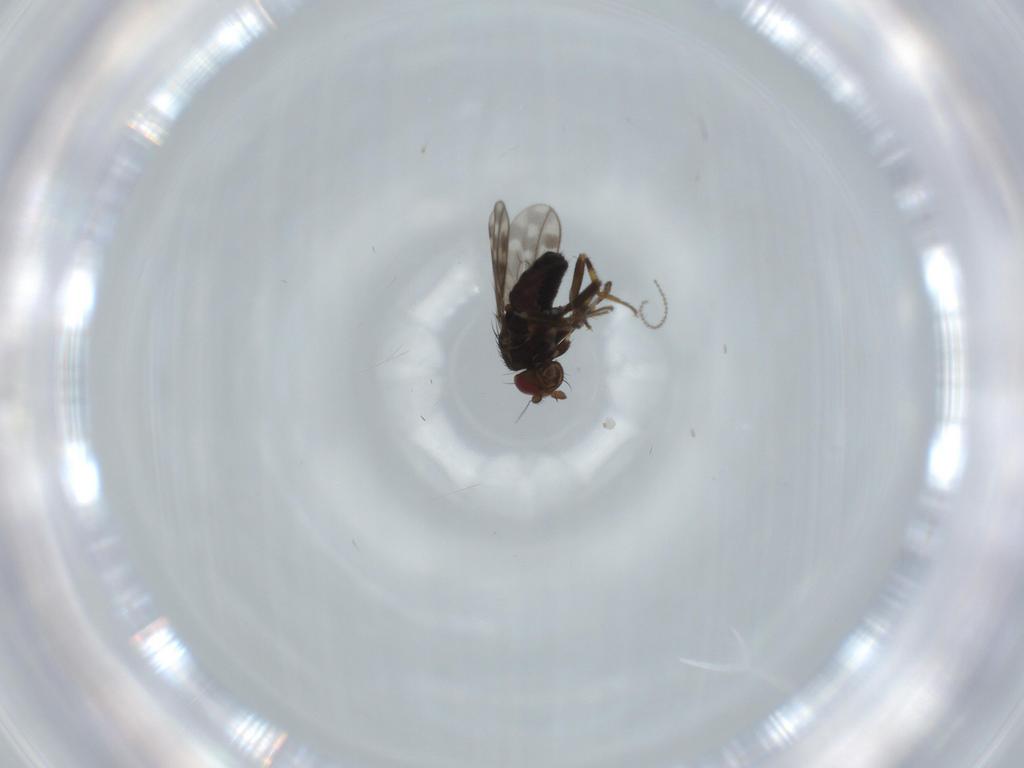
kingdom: Animalia
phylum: Arthropoda
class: Insecta
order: Diptera
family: Sphaeroceridae
